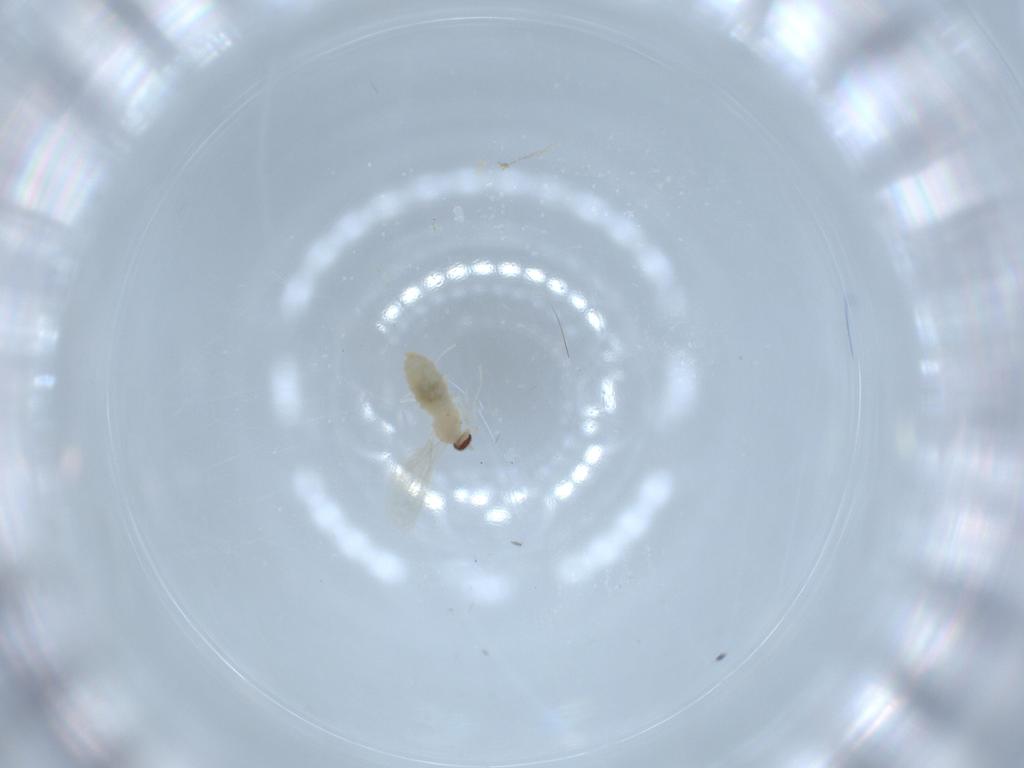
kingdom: Animalia
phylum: Arthropoda
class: Insecta
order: Diptera
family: Cecidomyiidae
